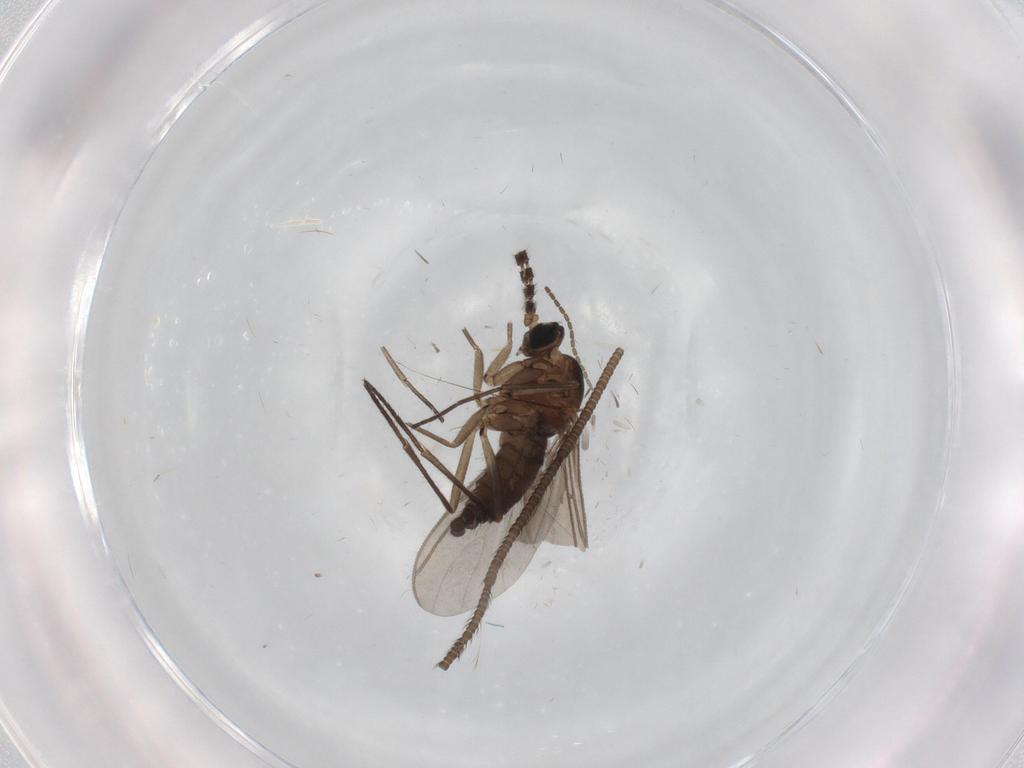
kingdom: Animalia
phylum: Arthropoda
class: Insecta
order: Diptera
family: Sciaridae
